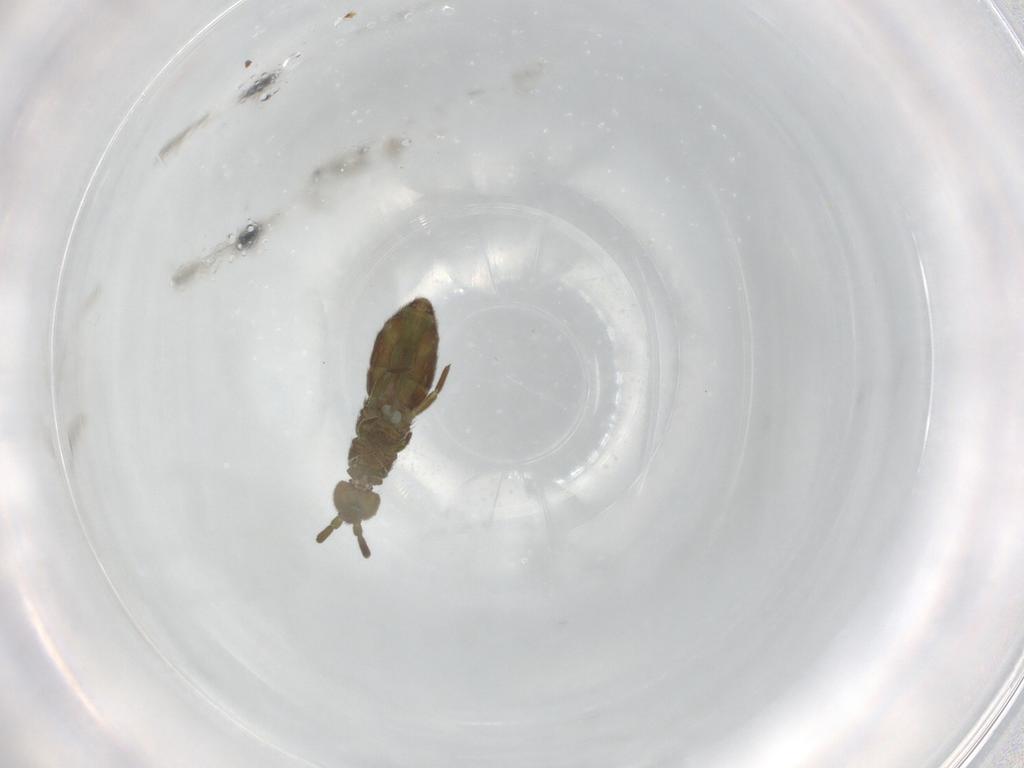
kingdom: Animalia
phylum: Arthropoda
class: Collembola
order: Entomobryomorpha
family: Isotomidae
